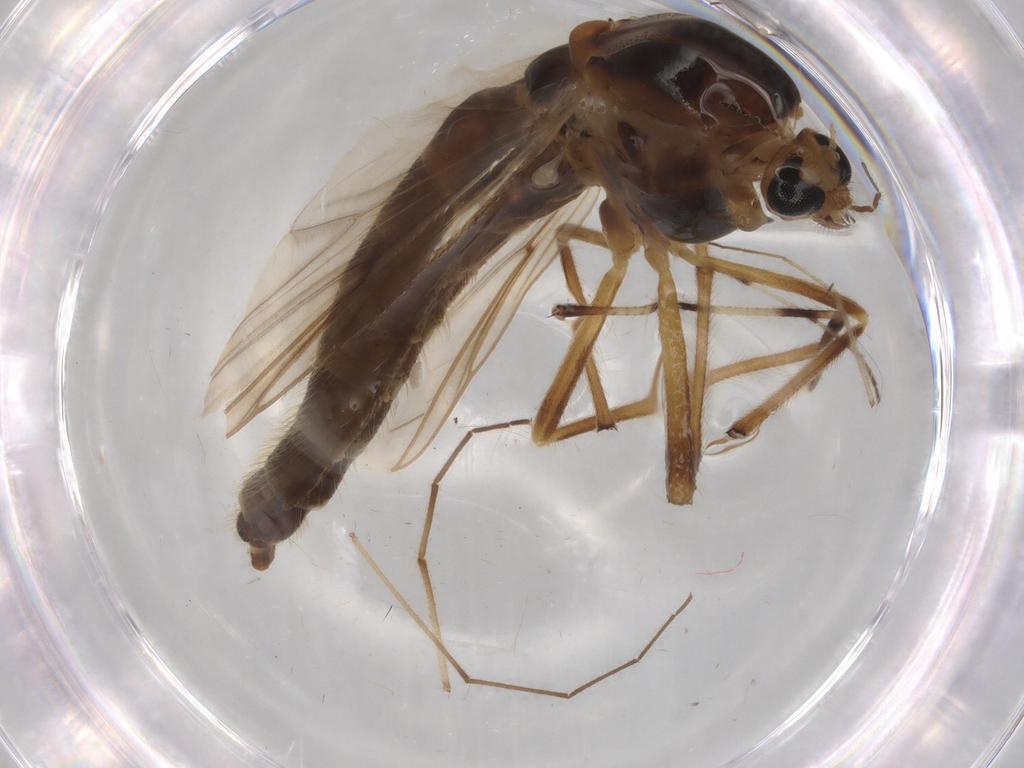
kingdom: Animalia
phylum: Arthropoda
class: Insecta
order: Diptera
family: Chironomidae
